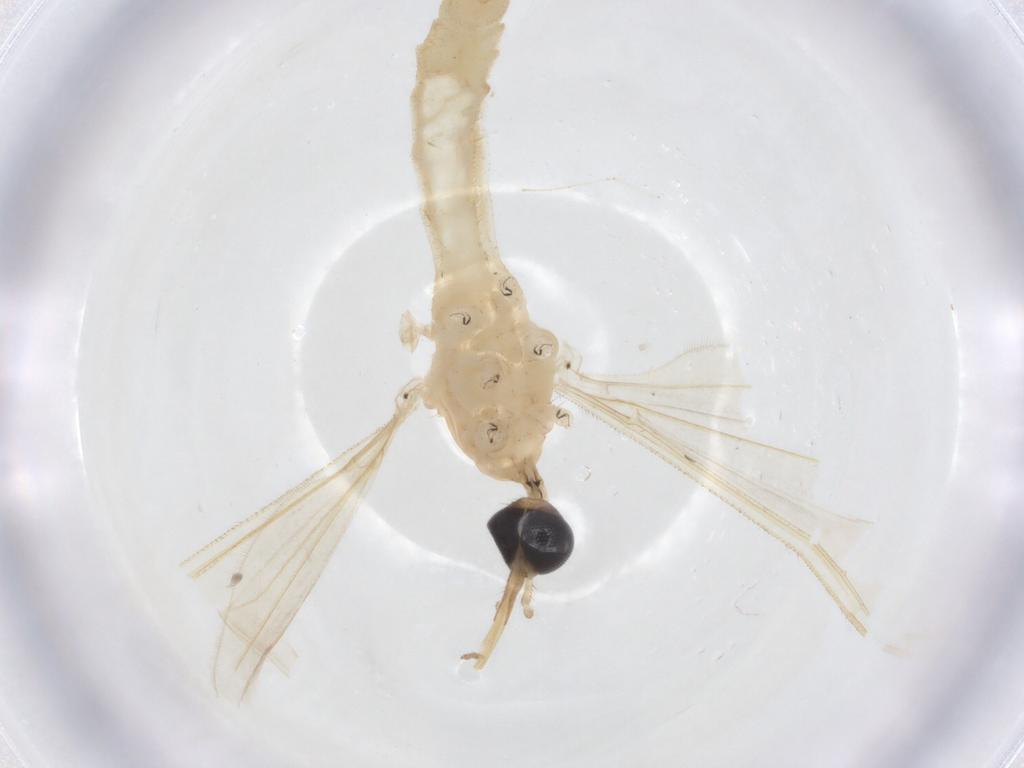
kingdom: Animalia
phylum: Arthropoda
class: Insecta
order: Diptera
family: Limoniidae
